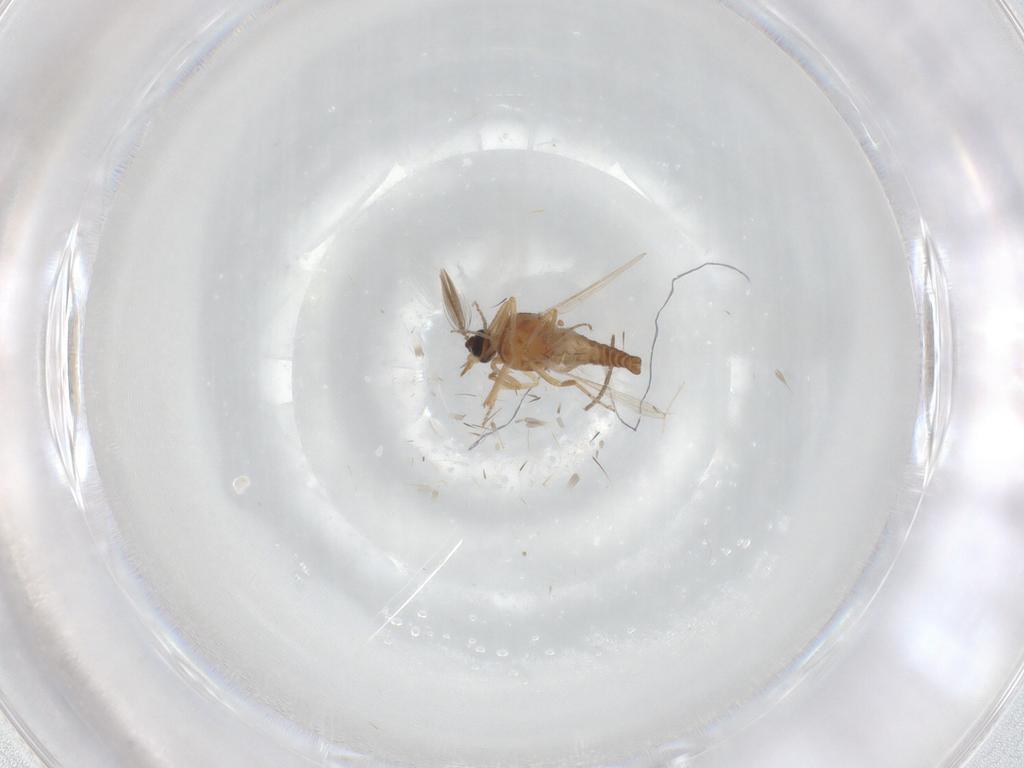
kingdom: Animalia
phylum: Arthropoda
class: Insecta
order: Diptera
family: Ceratopogonidae
